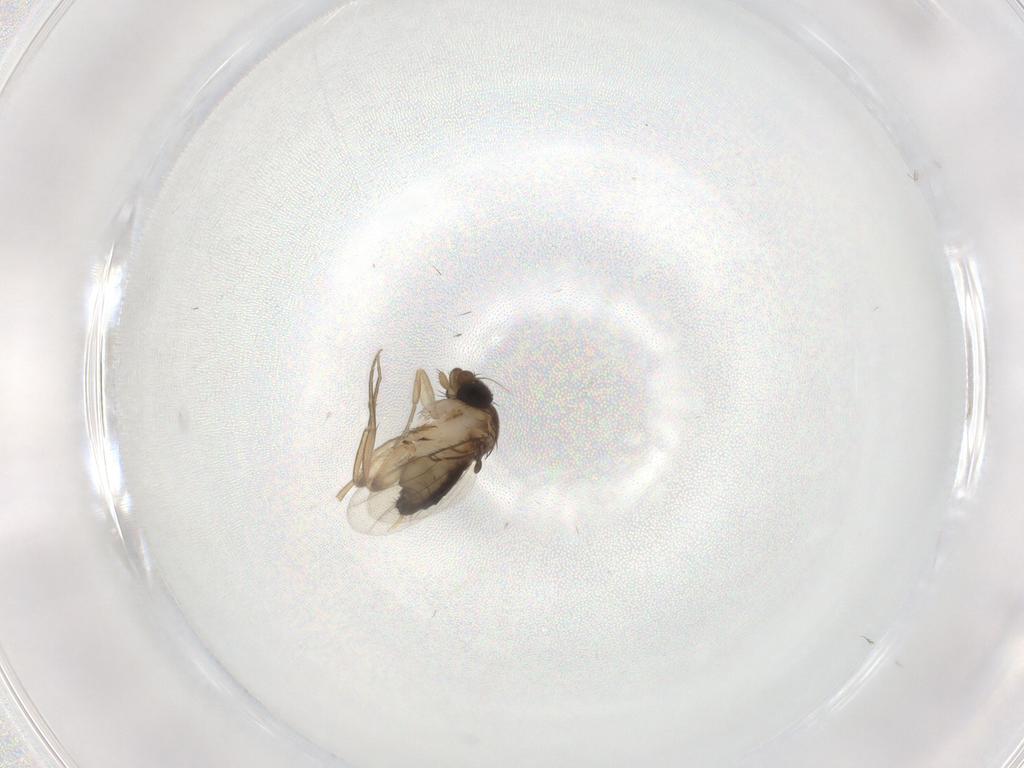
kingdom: Animalia
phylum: Arthropoda
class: Insecta
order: Diptera
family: Phoridae
